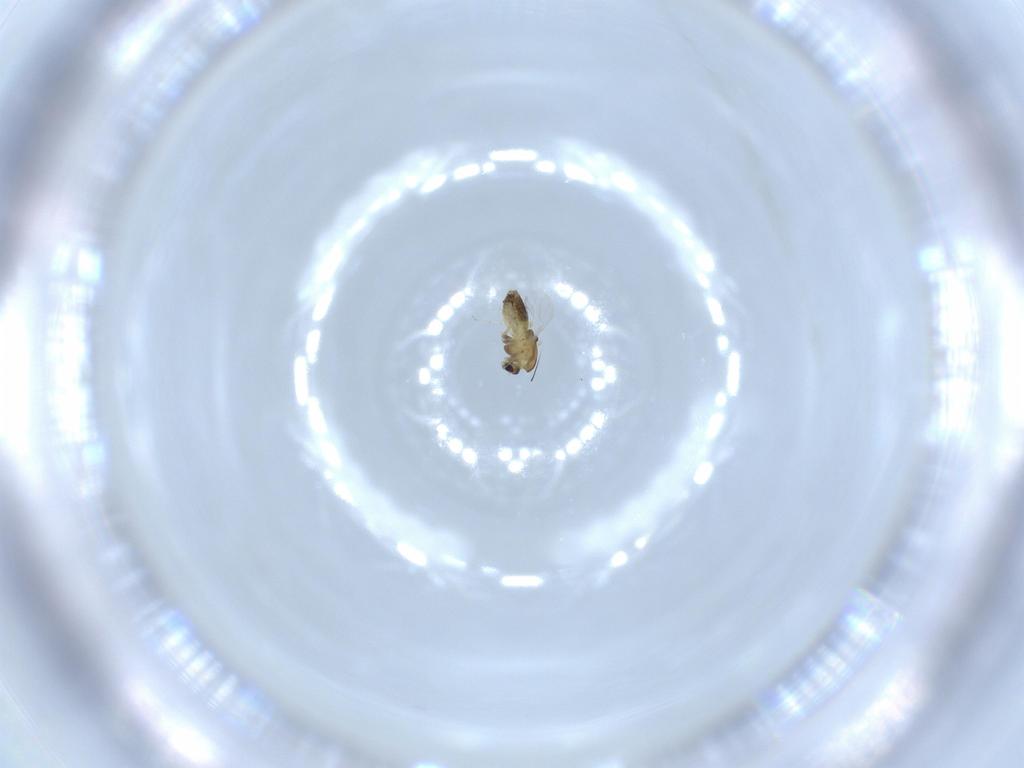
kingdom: Animalia
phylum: Arthropoda
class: Insecta
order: Diptera
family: Chironomidae
